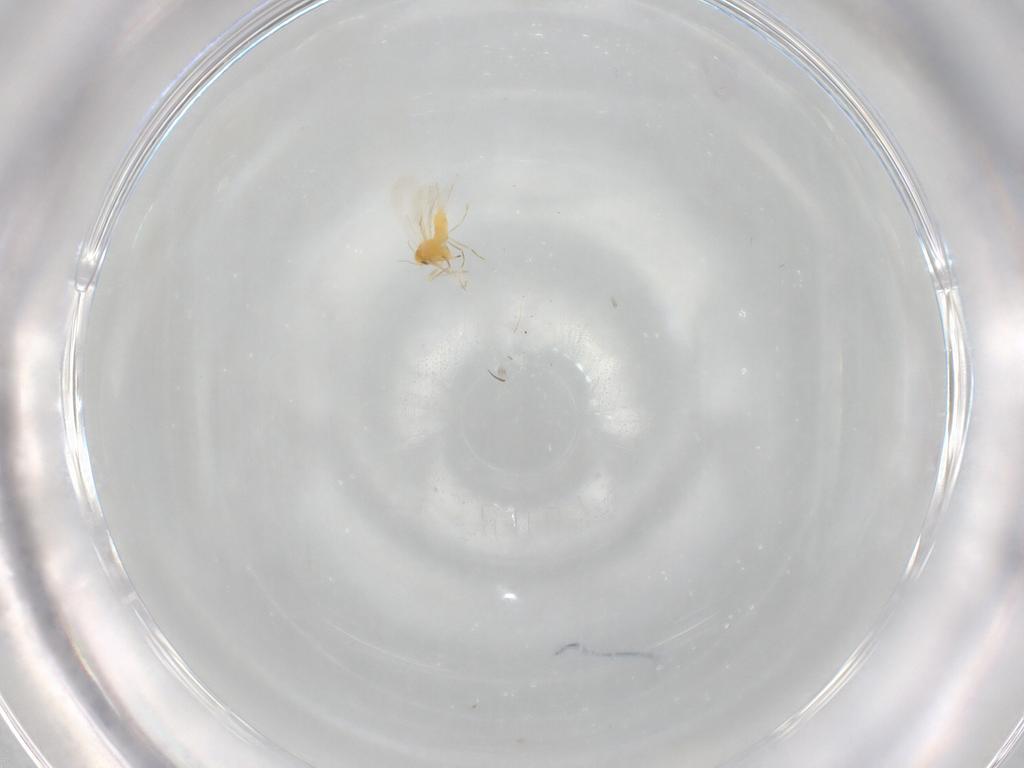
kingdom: Animalia
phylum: Arthropoda
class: Insecta
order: Hemiptera
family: Aleyrodidae
